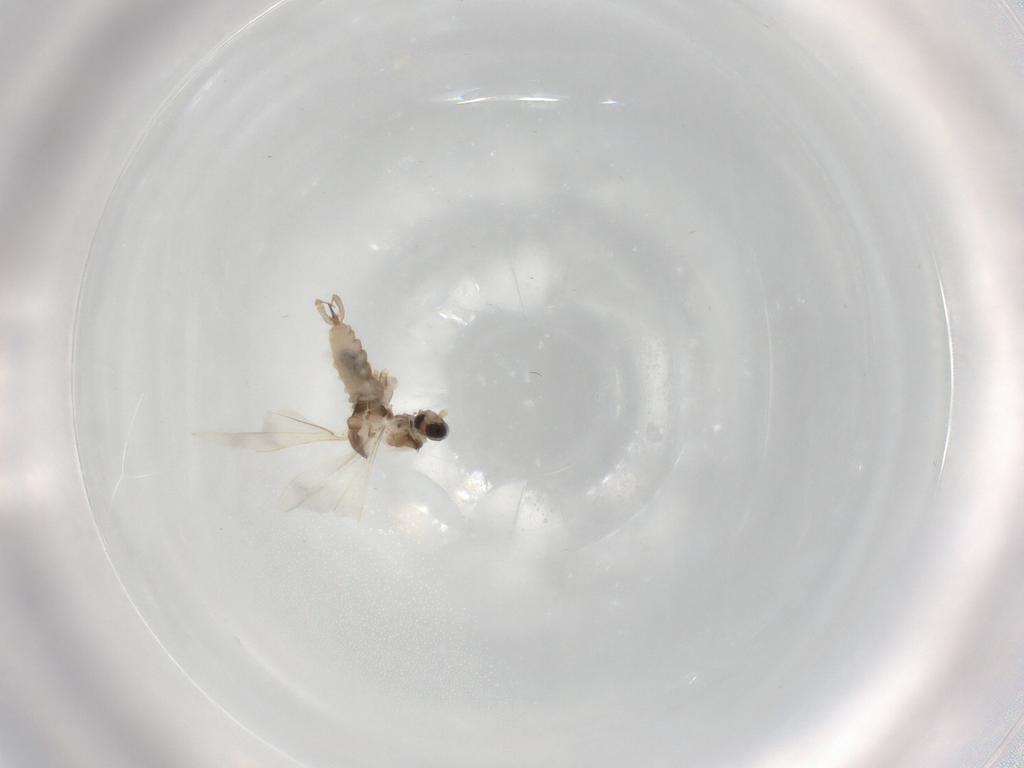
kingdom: Animalia
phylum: Arthropoda
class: Insecta
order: Diptera
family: Cecidomyiidae
